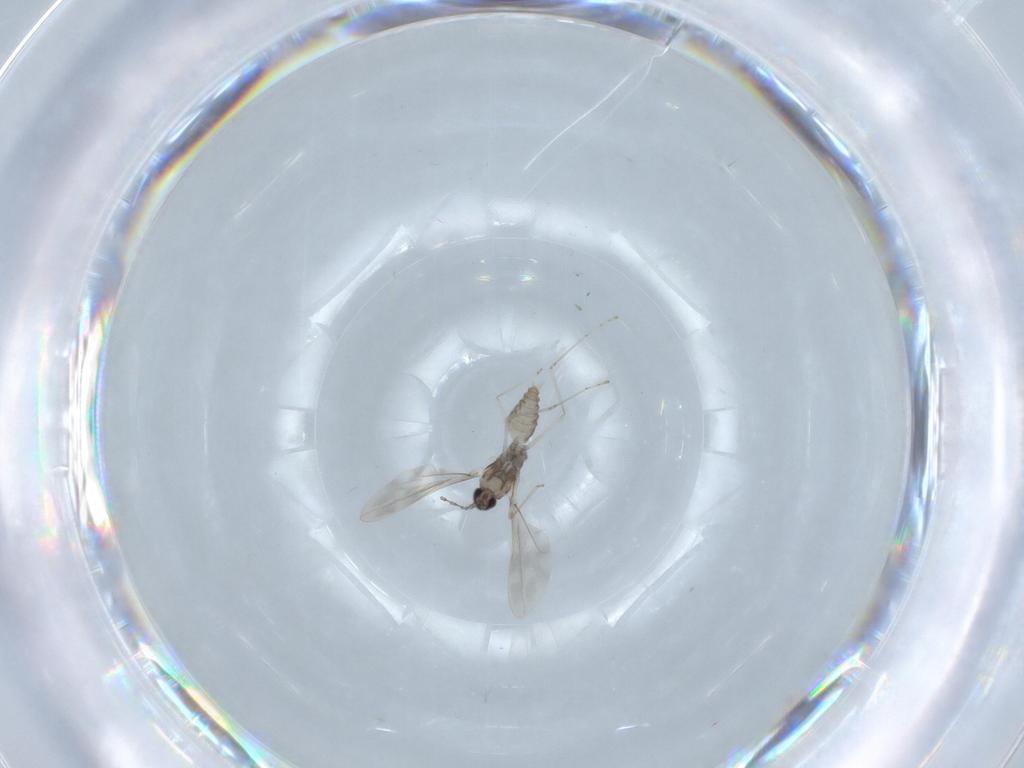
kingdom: Animalia
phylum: Arthropoda
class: Insecta
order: Diptera
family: Cecidomyiidae
